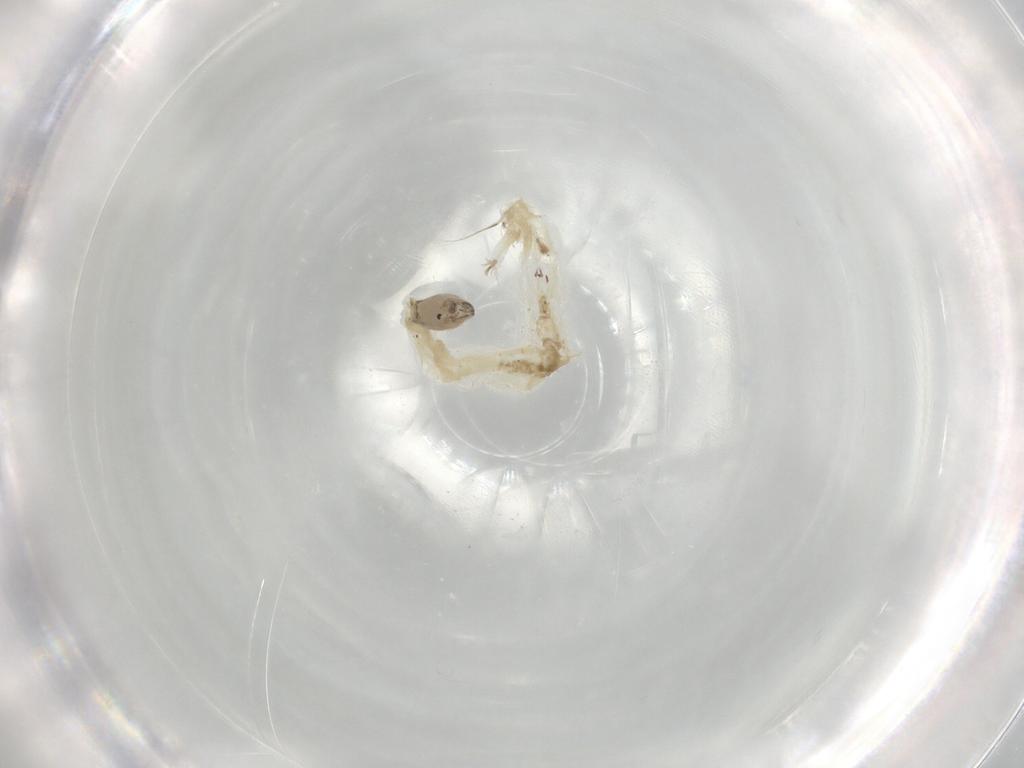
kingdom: Animalia
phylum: Arthropoda
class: Insecta
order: Diptera
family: Chironomidae
